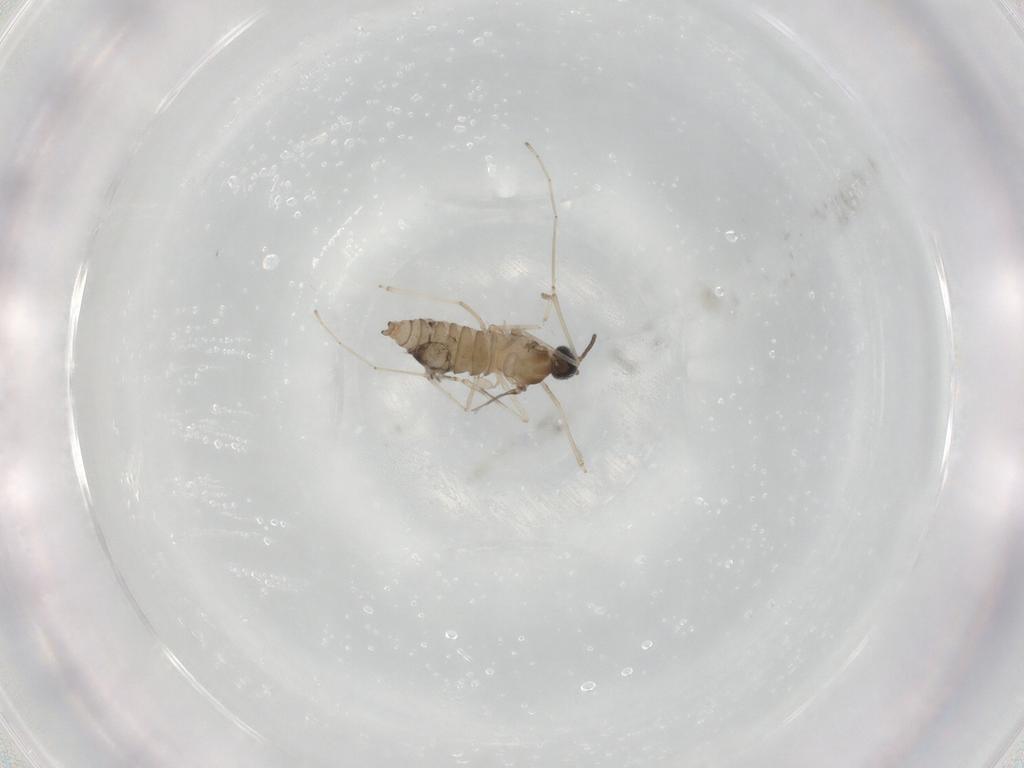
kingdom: Animalia
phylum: Arthropoda
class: Insecta
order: Diptera
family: Cecidomyiidae
